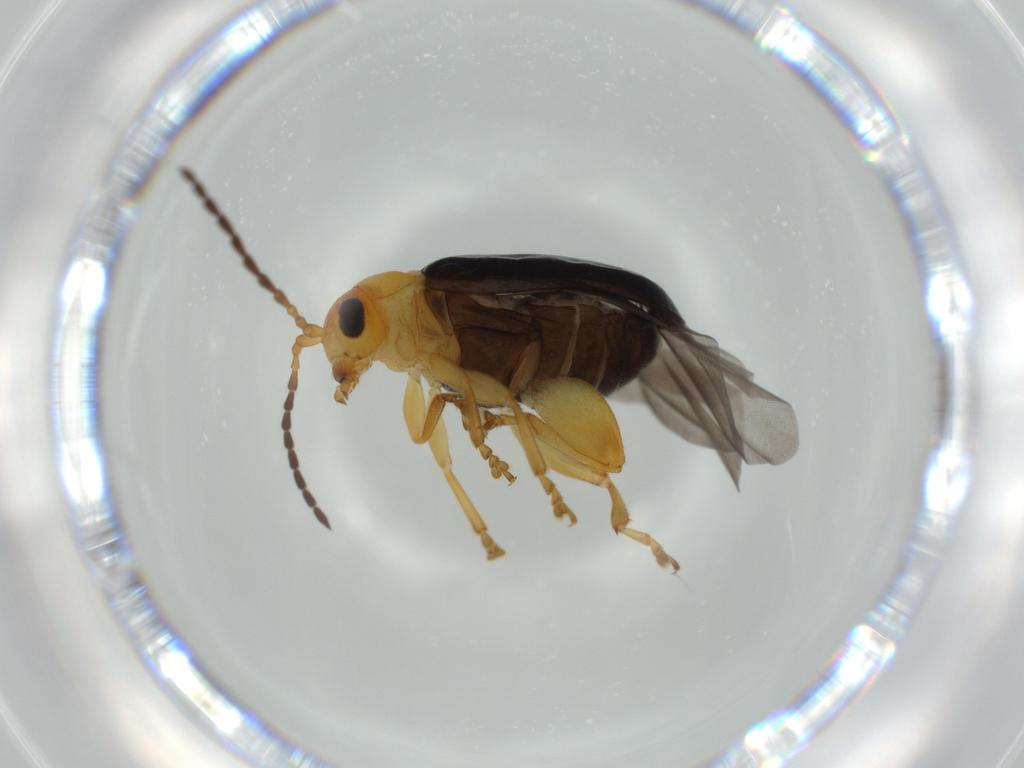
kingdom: Animalia
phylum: Arthropoda
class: Insecta
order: Coleoptera
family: Chrysomelidae
